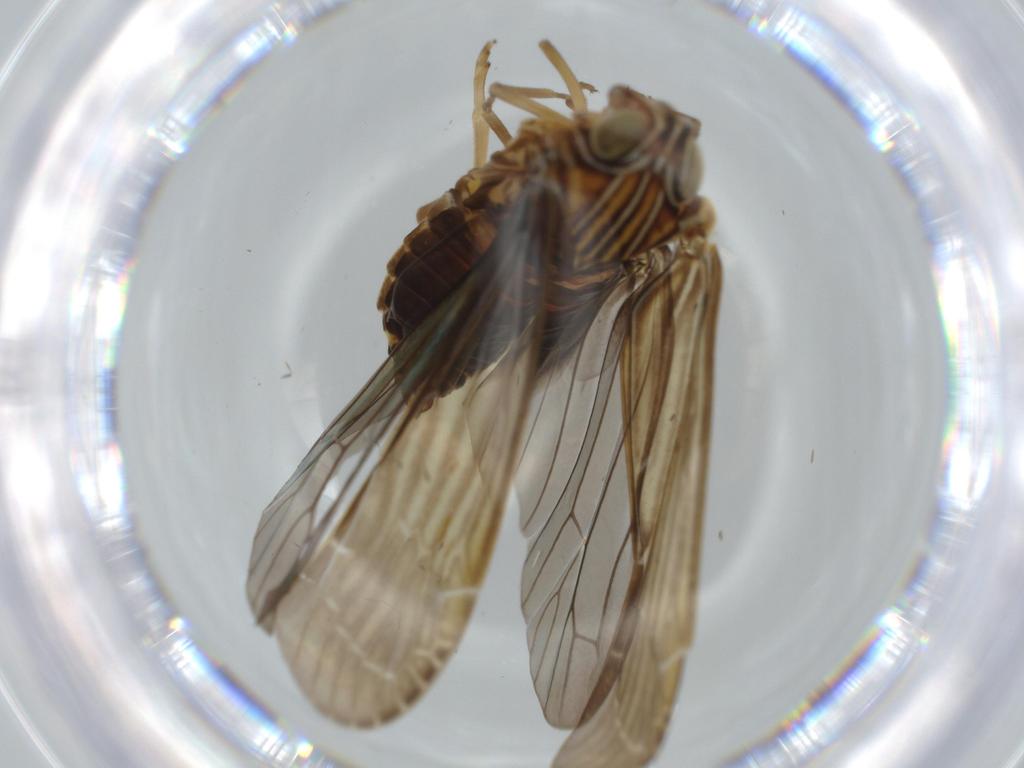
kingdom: Animalia
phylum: Arthropoda
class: Insecta
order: Hemiptera
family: Achilidae
